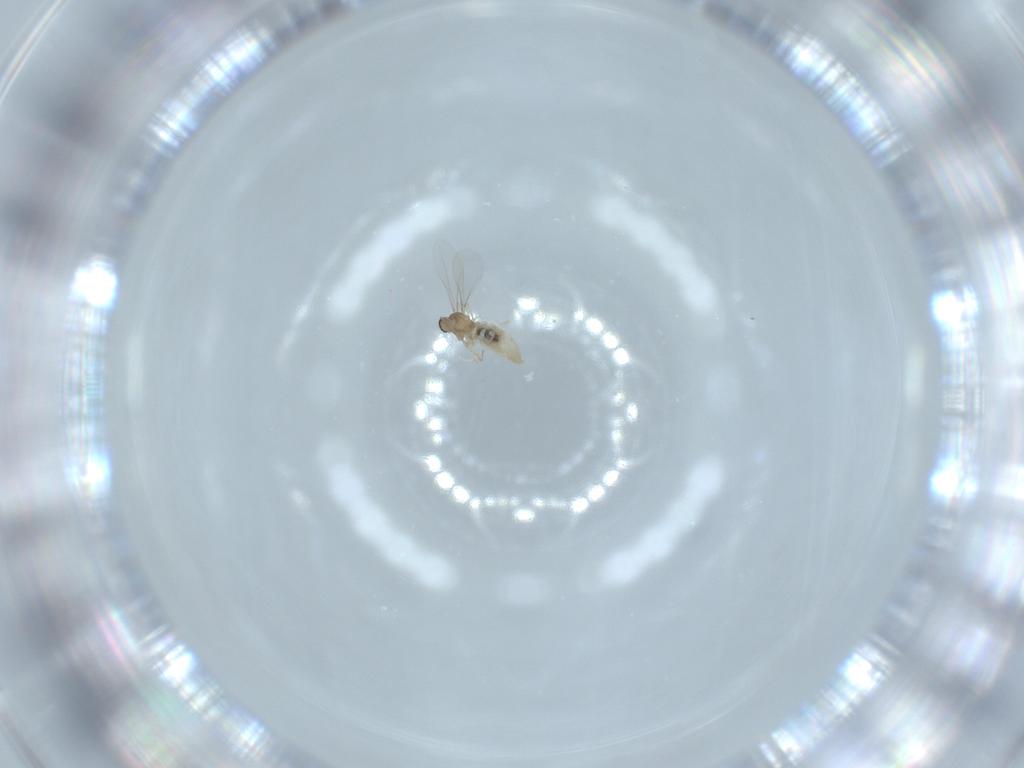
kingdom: Animalia
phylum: Arthropoda
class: Insecta
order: Diptera
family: Cecidomyiidae
